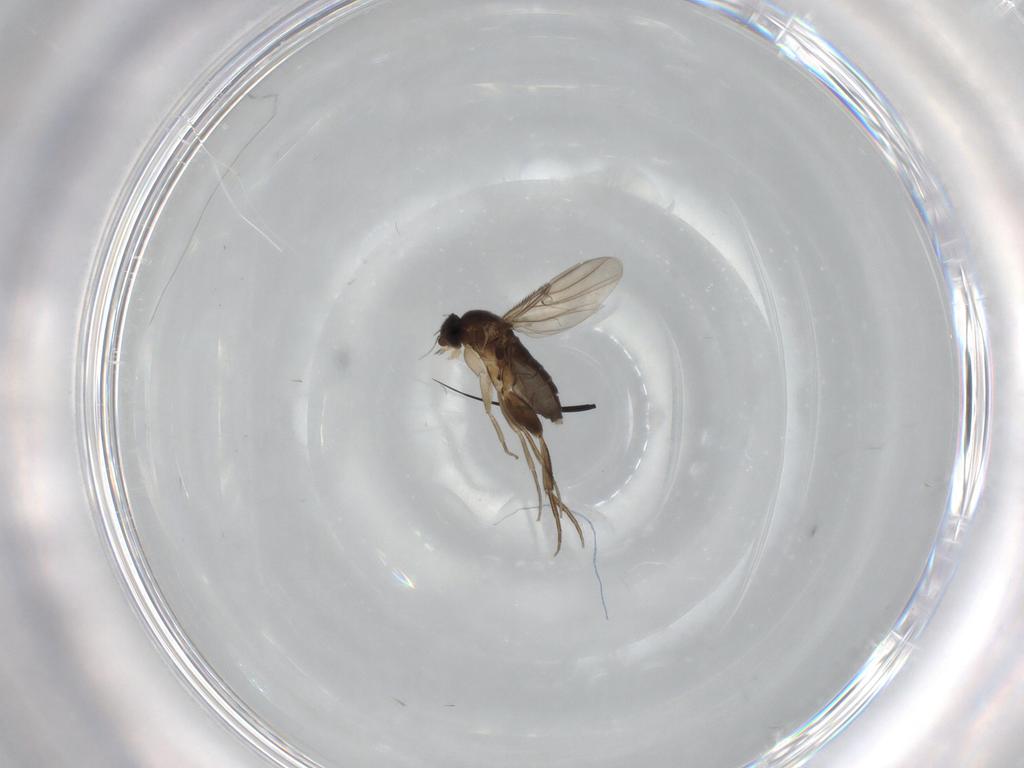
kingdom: Animalia
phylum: Arthropoda
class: Insecta
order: Diptera
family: Phoridae
